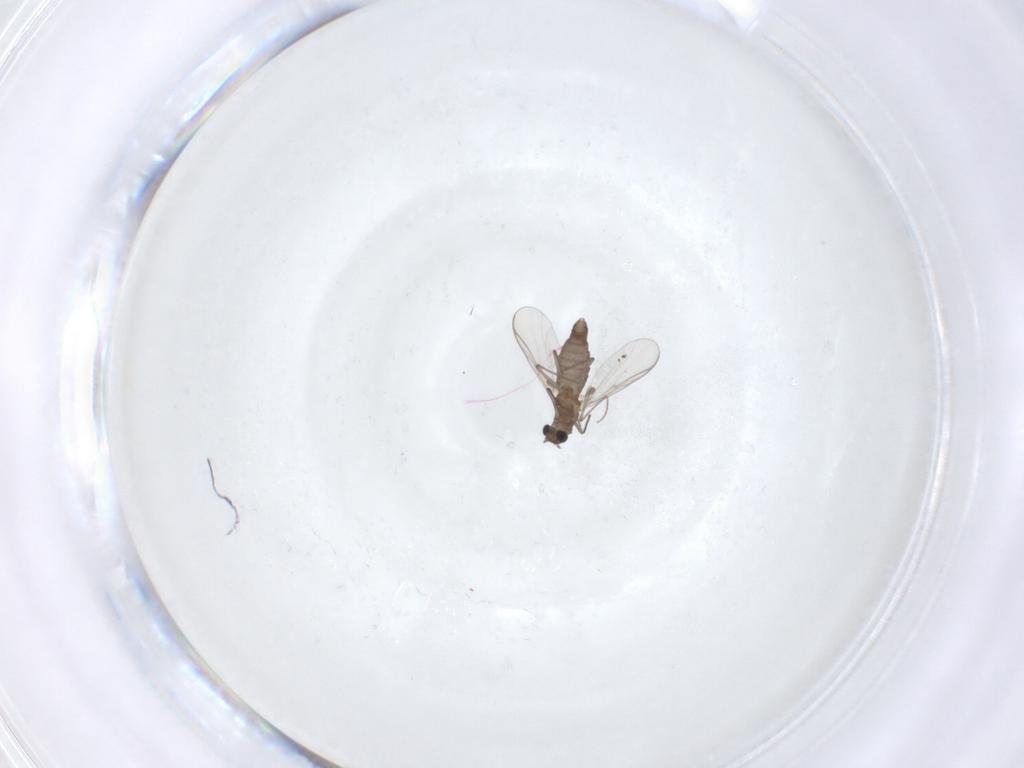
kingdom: Animalia
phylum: Arthropoda
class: Insecta
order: Diptera
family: Chironomidae
